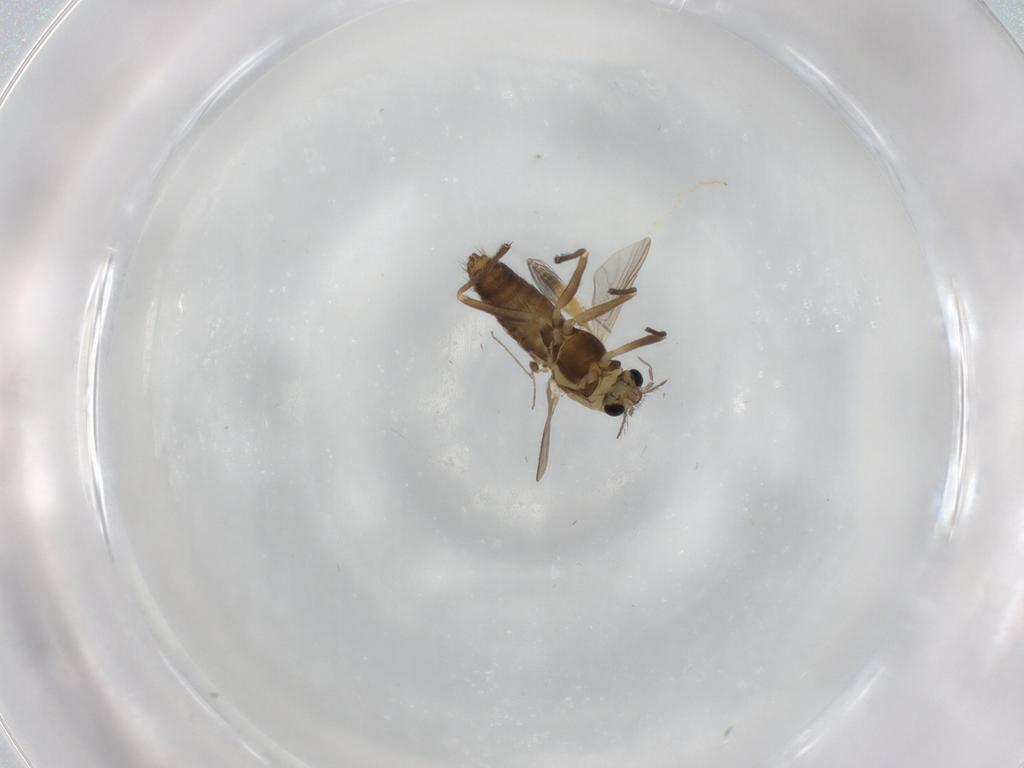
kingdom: Animalia
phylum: Arthropoda
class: Insecta
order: Diptera
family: Chironomidae
